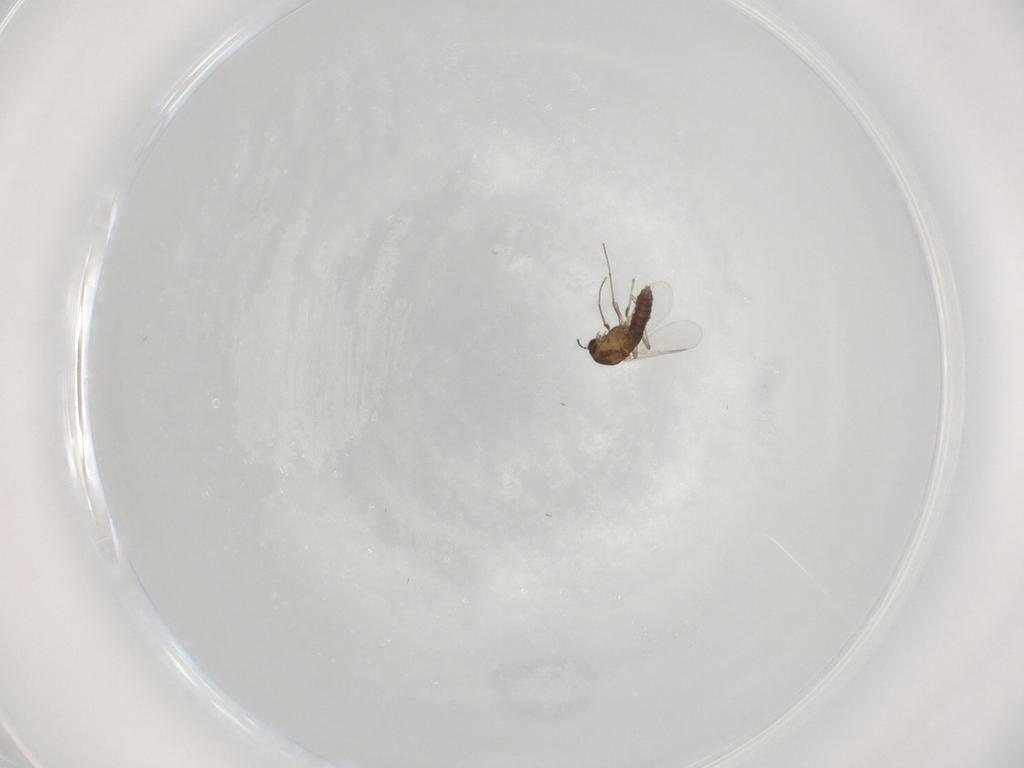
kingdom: Animalia
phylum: Arthropoda
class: Insecta
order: Diptera
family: Chironomidae
